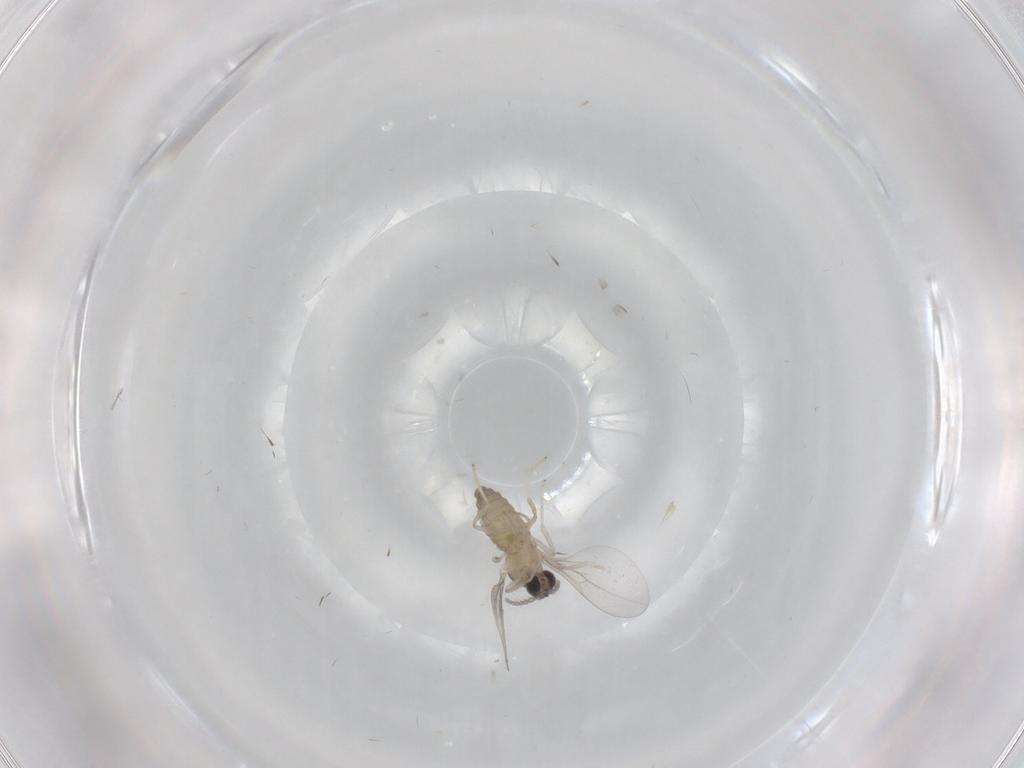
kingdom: Animalia
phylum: Arthropoda
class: Insecta
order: Diptera
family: Cecidomyiidae
